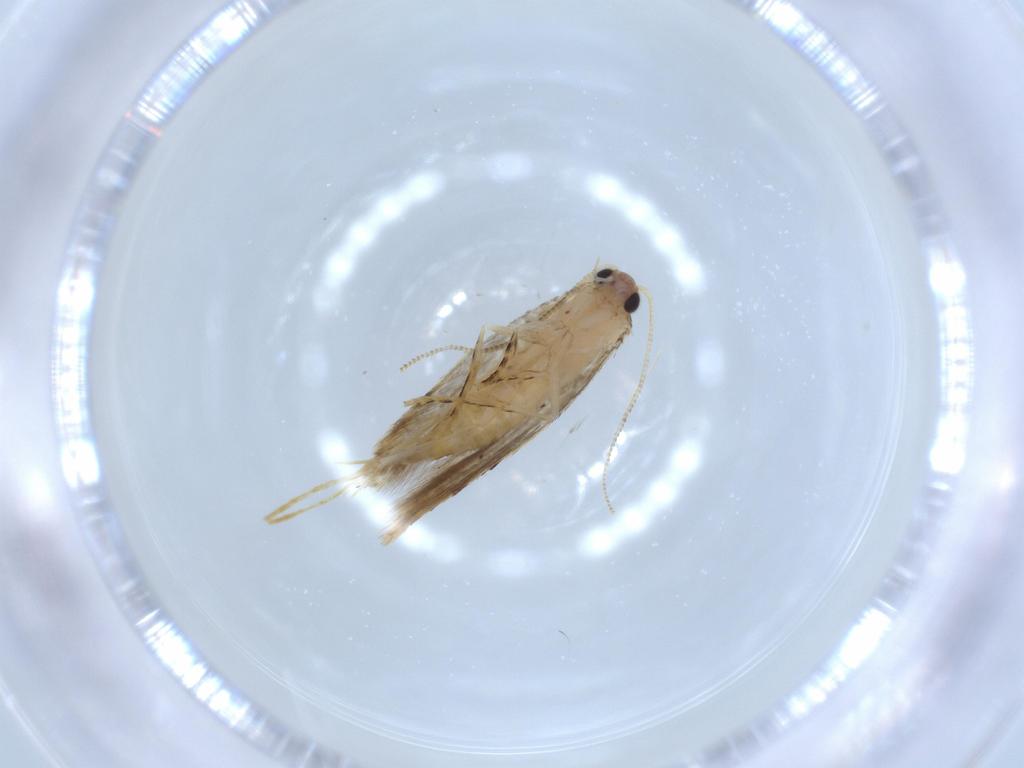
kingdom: Animalia
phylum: Arthropoda
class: Insecta
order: Lepidoptera
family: Tineidae
